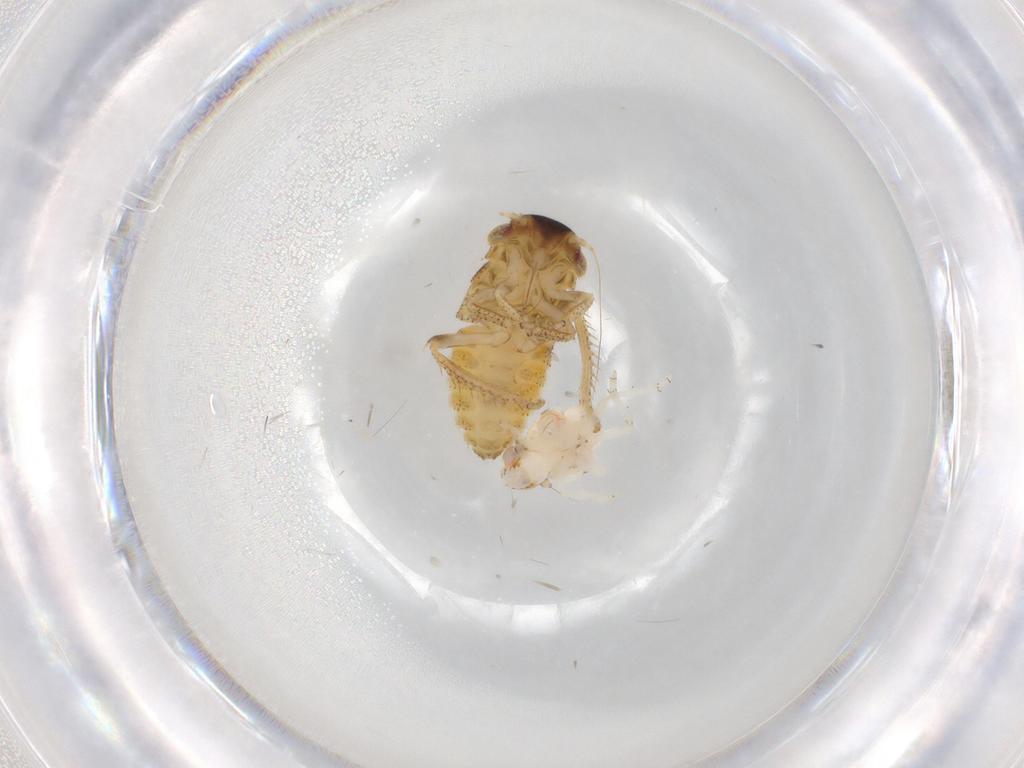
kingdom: Animalia
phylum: Arthropoda
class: Insecta
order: Hemiptera
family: Cicadellidae
